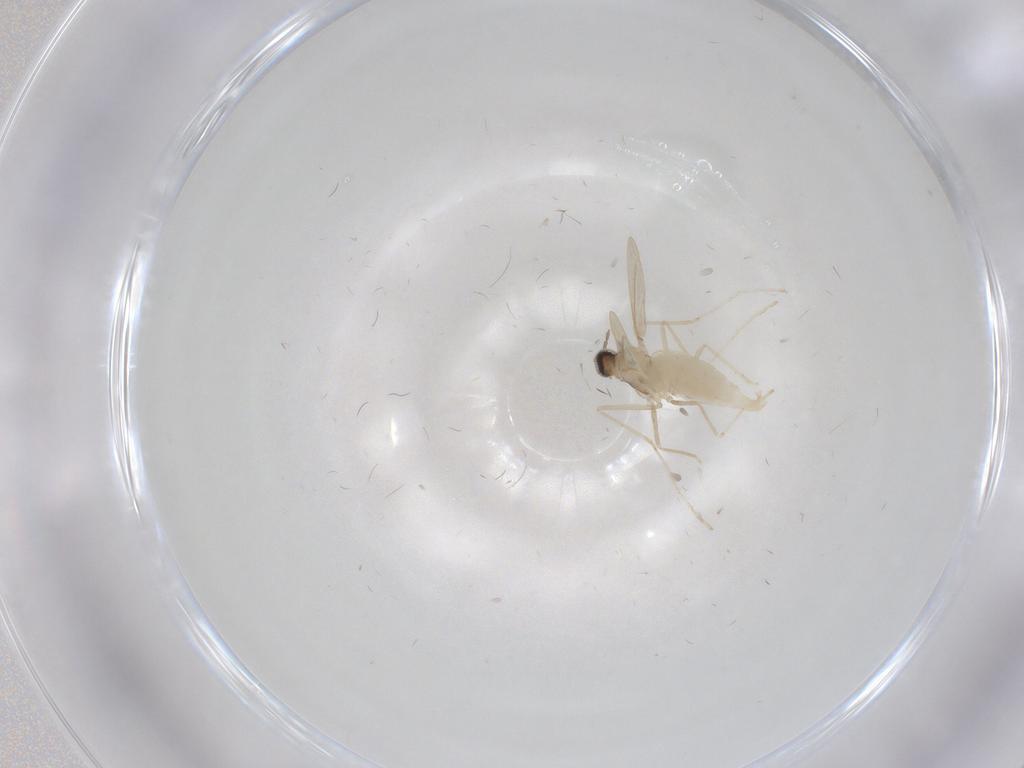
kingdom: Animalia
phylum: Arthropoda
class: Insecta
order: Diptera
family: Cecidomyiidae
